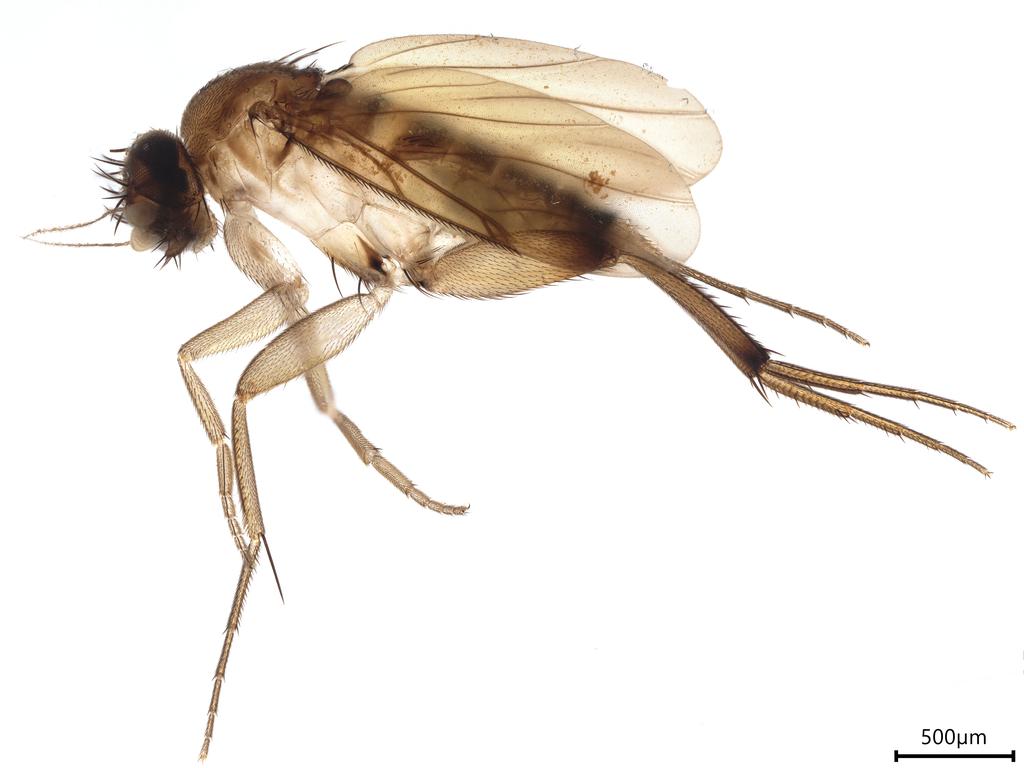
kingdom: Animalia
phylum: Arthropoda
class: Insecta
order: Diptera
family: Phoridae
